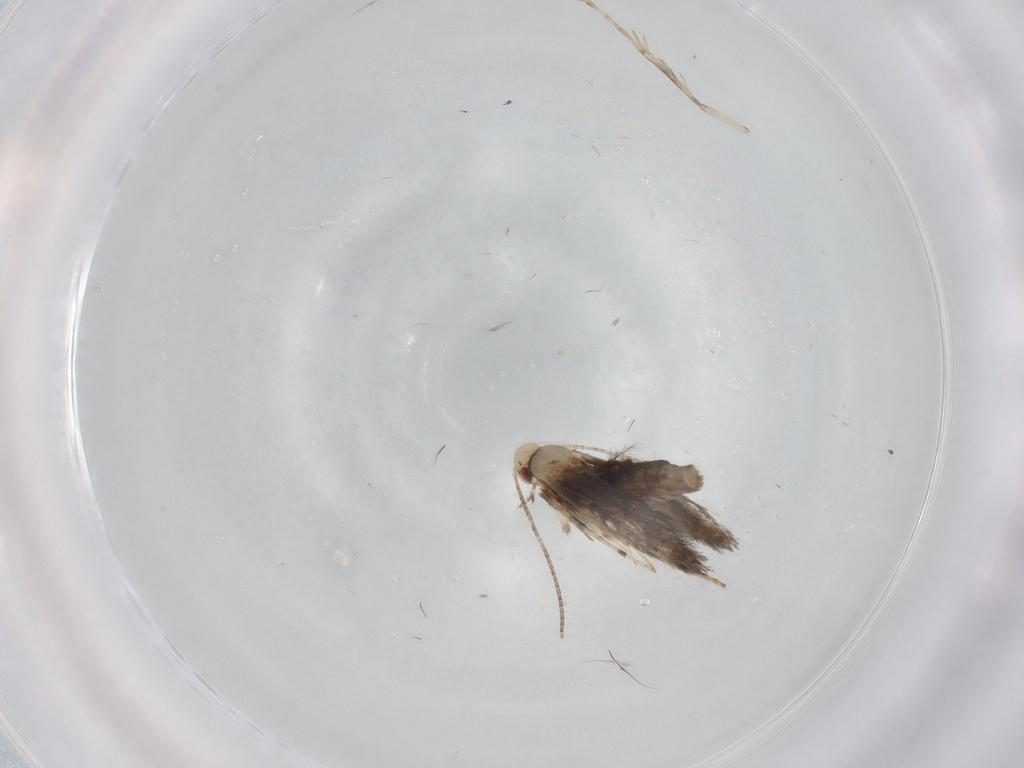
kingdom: Animalia
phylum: Arthropoda
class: Insecta
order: Lepidoptera
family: Gracillariidae
